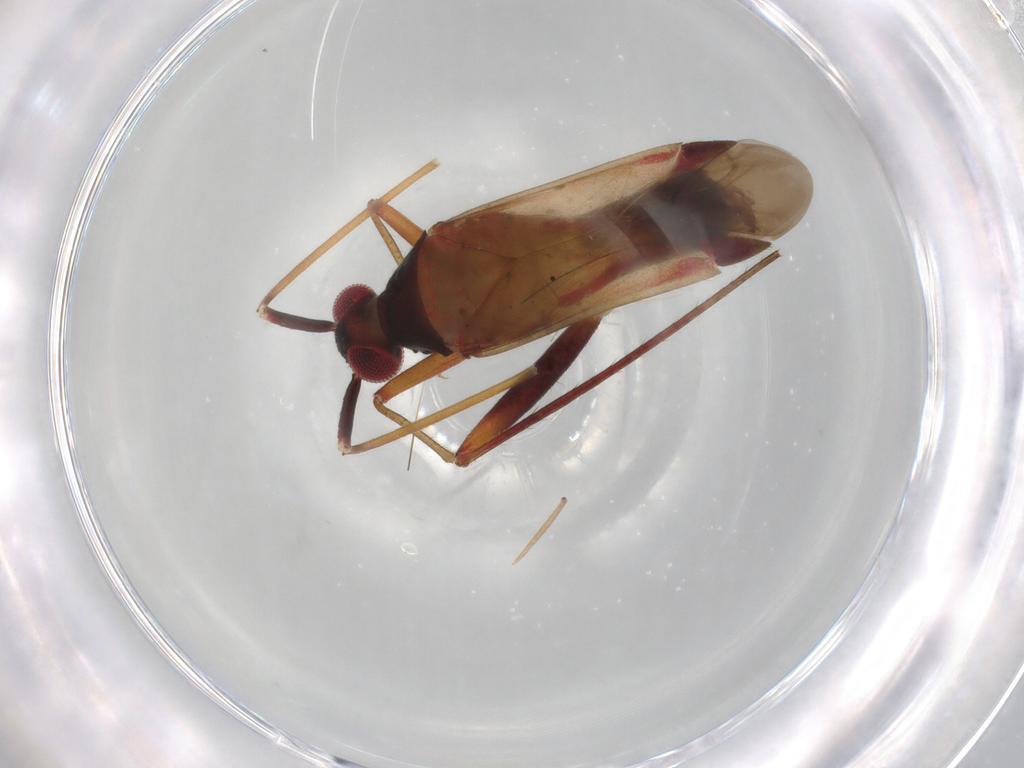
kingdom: Animalia
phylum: Arthropoda
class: Insecta
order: Hemiptera
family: Miridae
